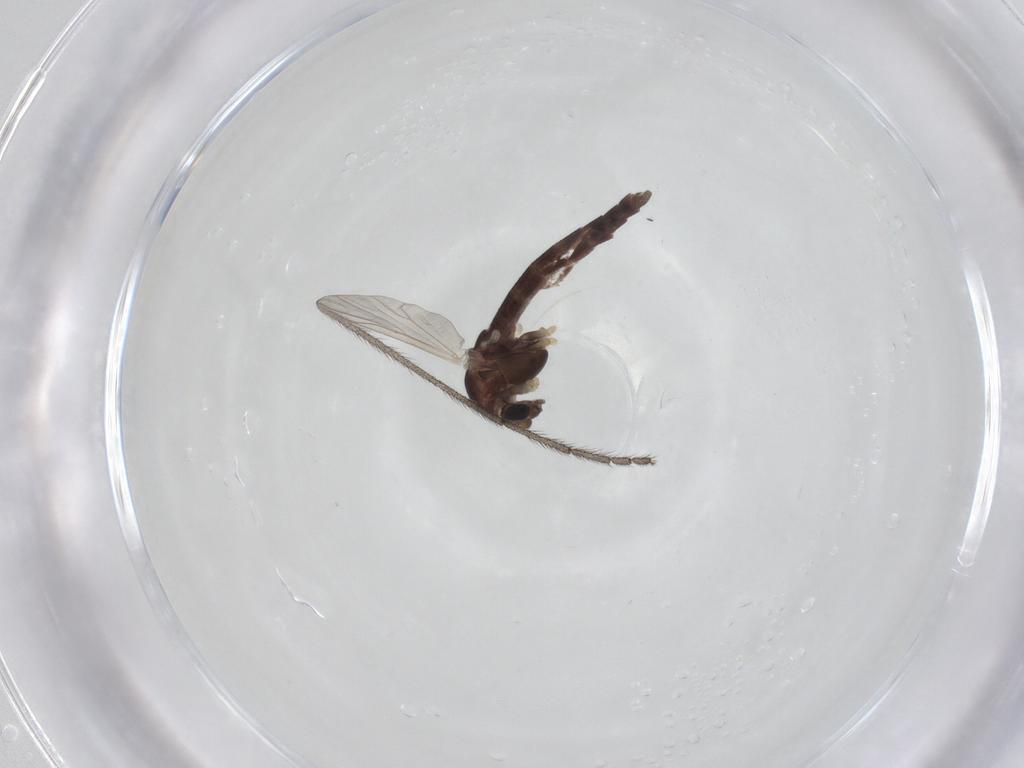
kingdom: Animalia
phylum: Arthropoda
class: Insecta
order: Diptera
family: Chironomidae
